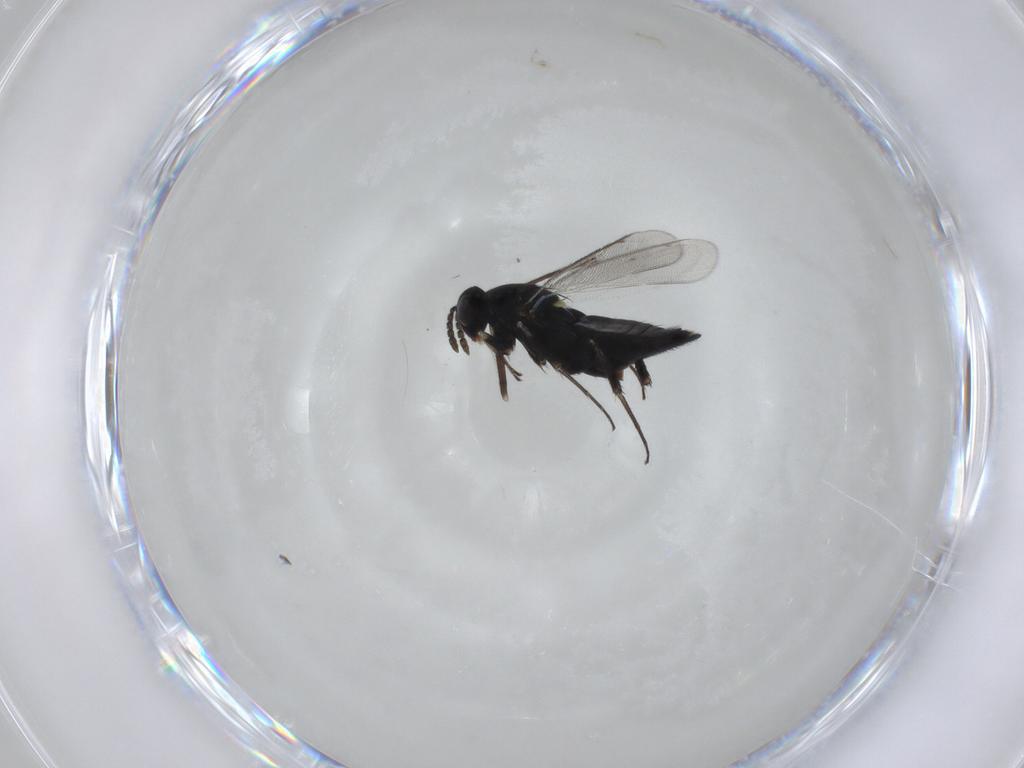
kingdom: Animalia
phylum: Arthropoda
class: Insecta
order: Hymenoptera
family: Eulophidae
